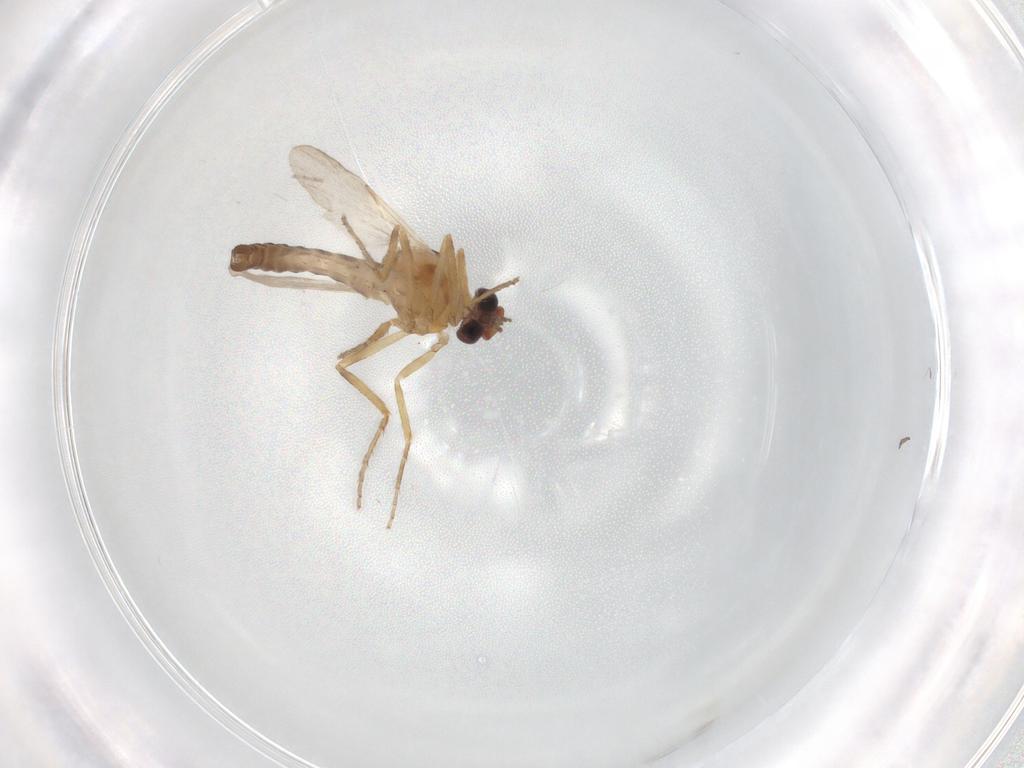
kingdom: Animalia
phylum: Arthropoda
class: Insecta
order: Diptera
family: Ceratopogonidae
